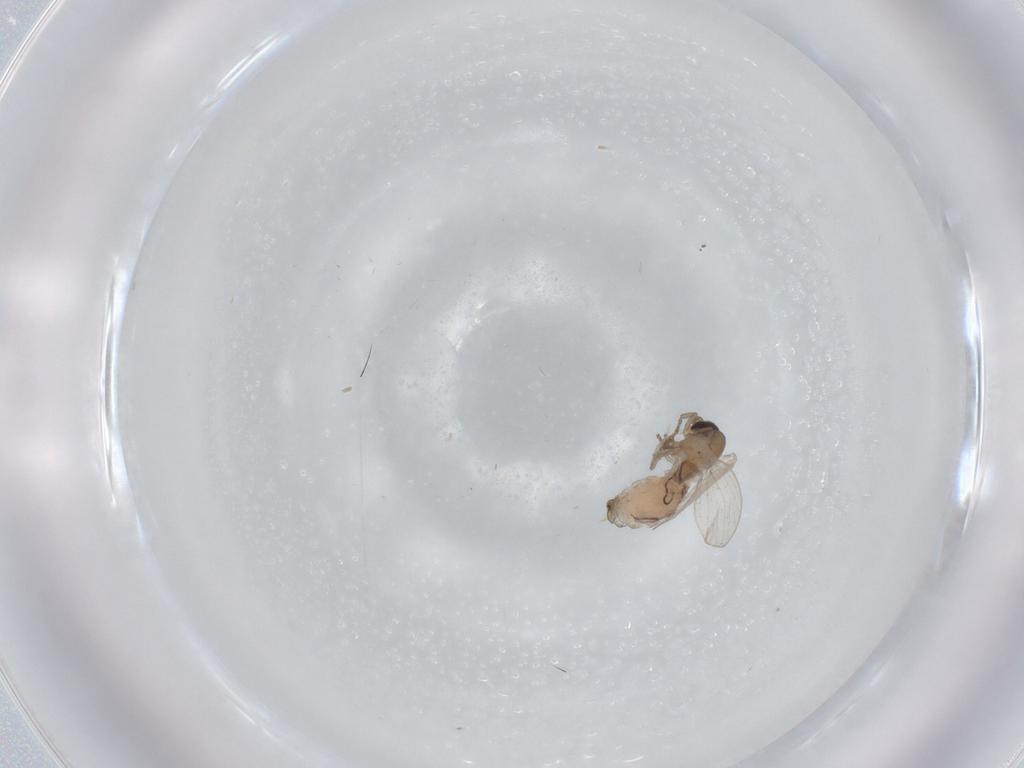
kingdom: Animalia
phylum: Arthropoda
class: Insecta
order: Diptera
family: Psychodidae
